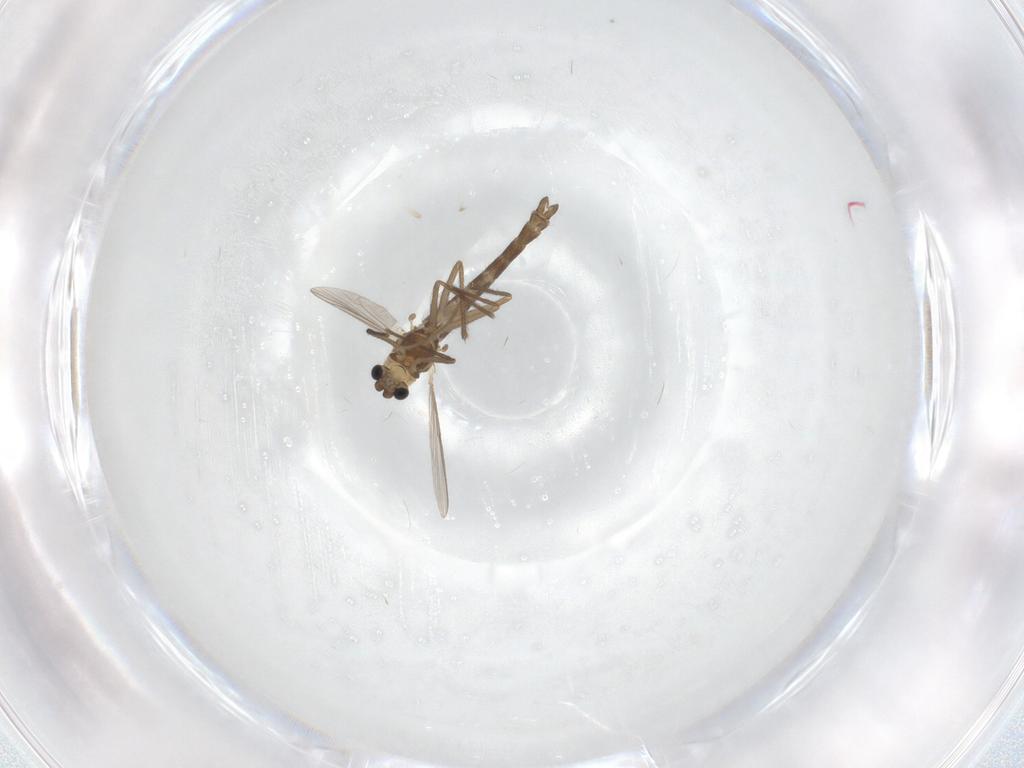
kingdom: Animalia
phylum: Arthropoda
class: Insecta
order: Diptera
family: Chironomidae
